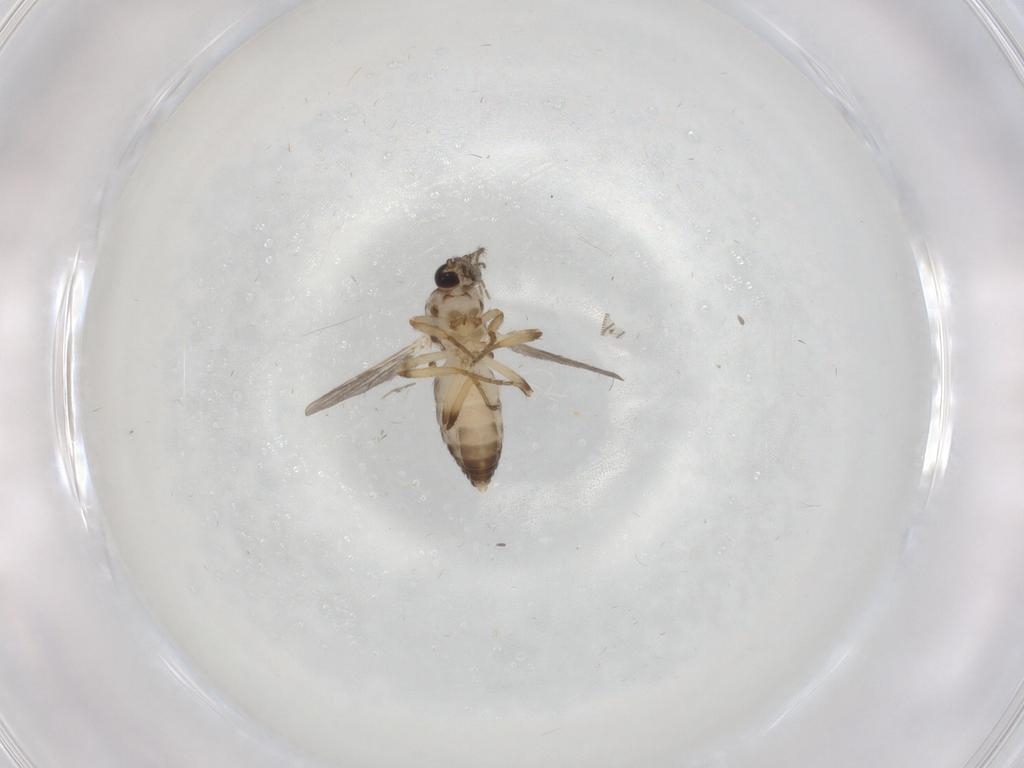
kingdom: Animalia
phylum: Arthropoda
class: Insecta
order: Diptera
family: Ceratopogonidae
